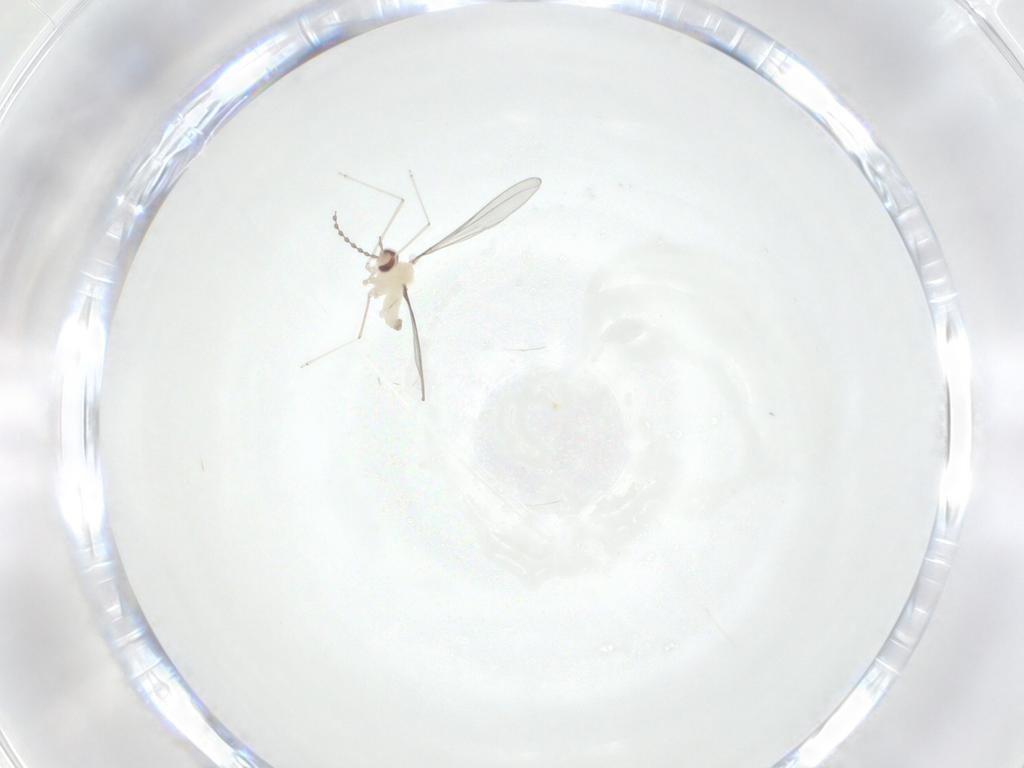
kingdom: Animalia
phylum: Arthropoda
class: Insecta
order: Diptera
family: Cecidomyiidae
